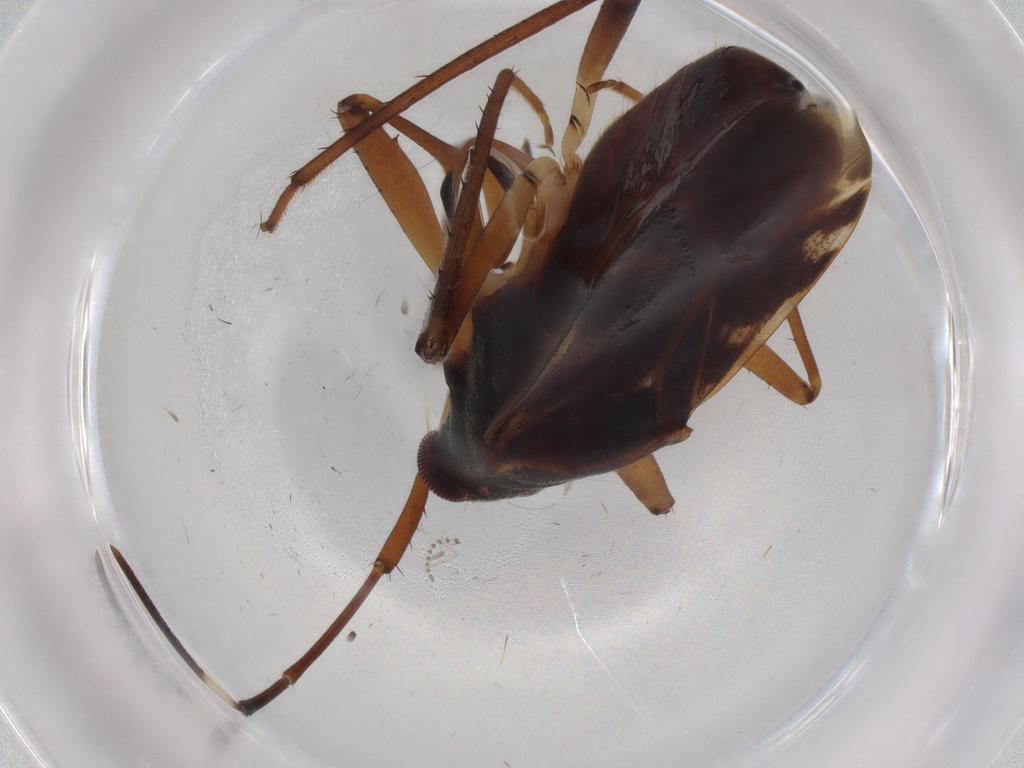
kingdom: Animalia
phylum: Arthropoda
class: Insecta
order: Hemiptera
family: Rhyparochromidae
